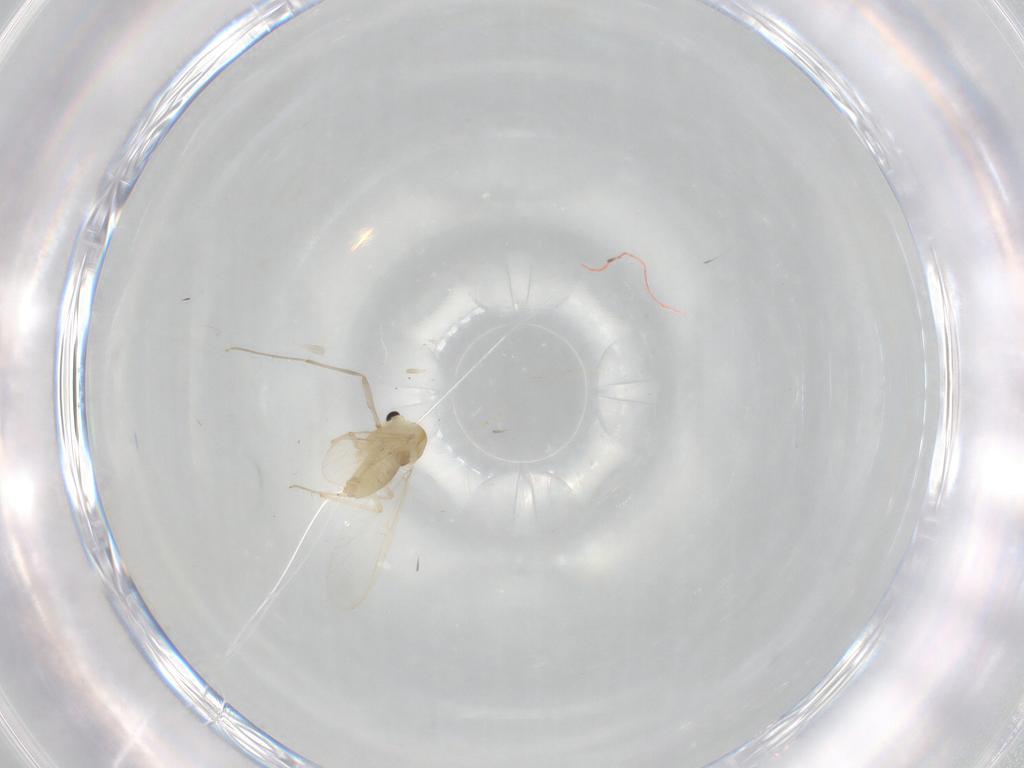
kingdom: Animalia
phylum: Arthropoda
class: Insecta
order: Diptera
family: Chironomidae
